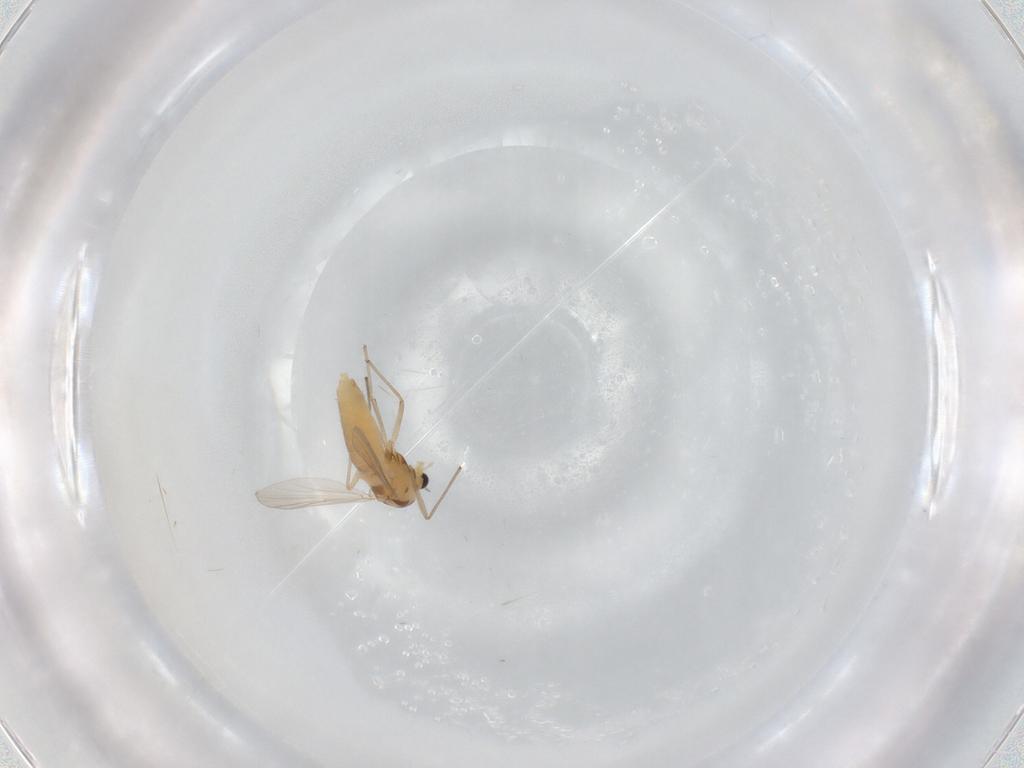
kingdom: Animalia
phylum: Arthropoda
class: Insecta
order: Diptera
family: Chironomidae
